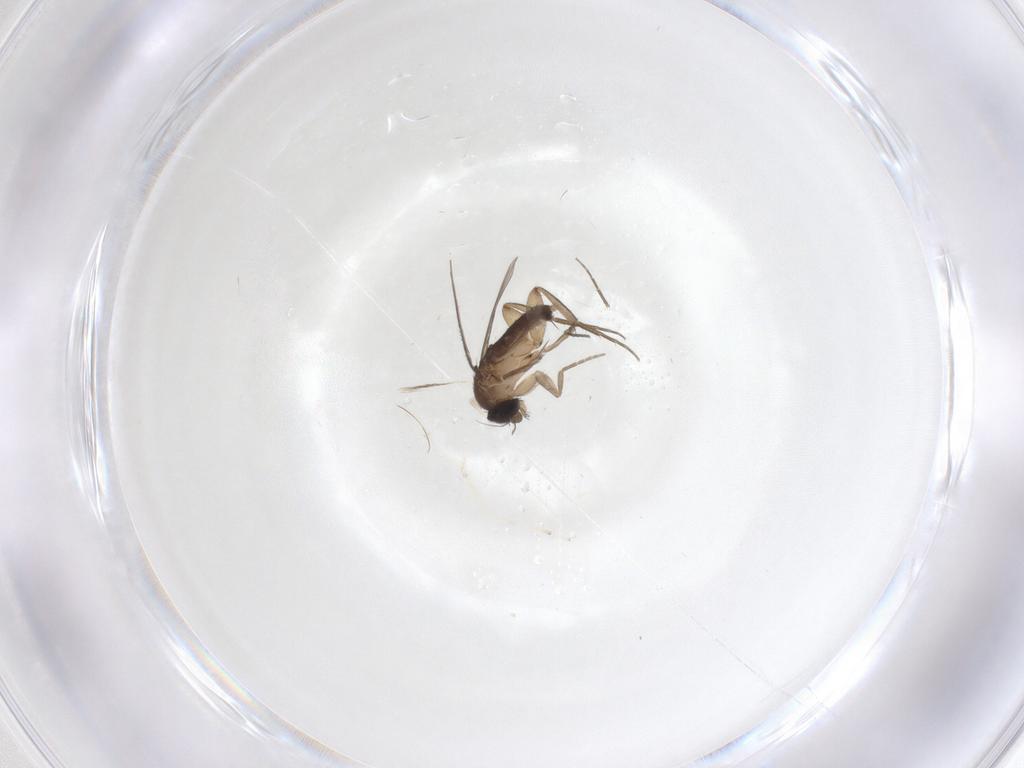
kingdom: Animalia
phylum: Arthropoda
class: Insecta
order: Diptera
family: Phoridae
